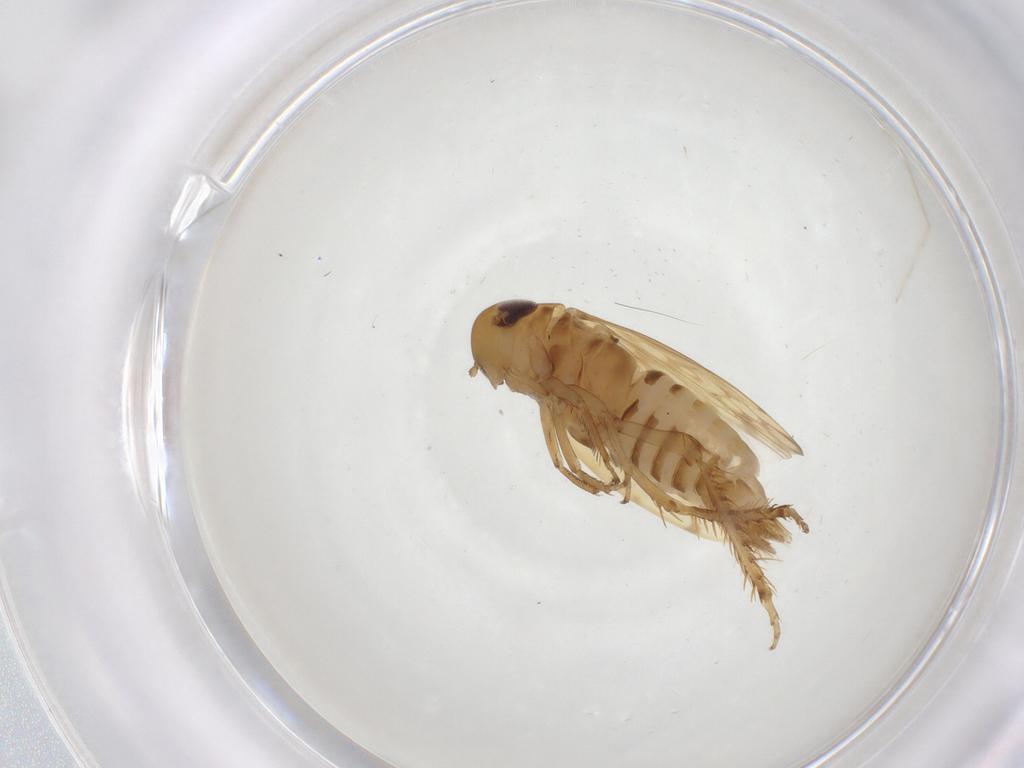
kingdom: Animalia
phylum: Arthropoda
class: Insecta
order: Hemiptera
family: Cicadellidae
